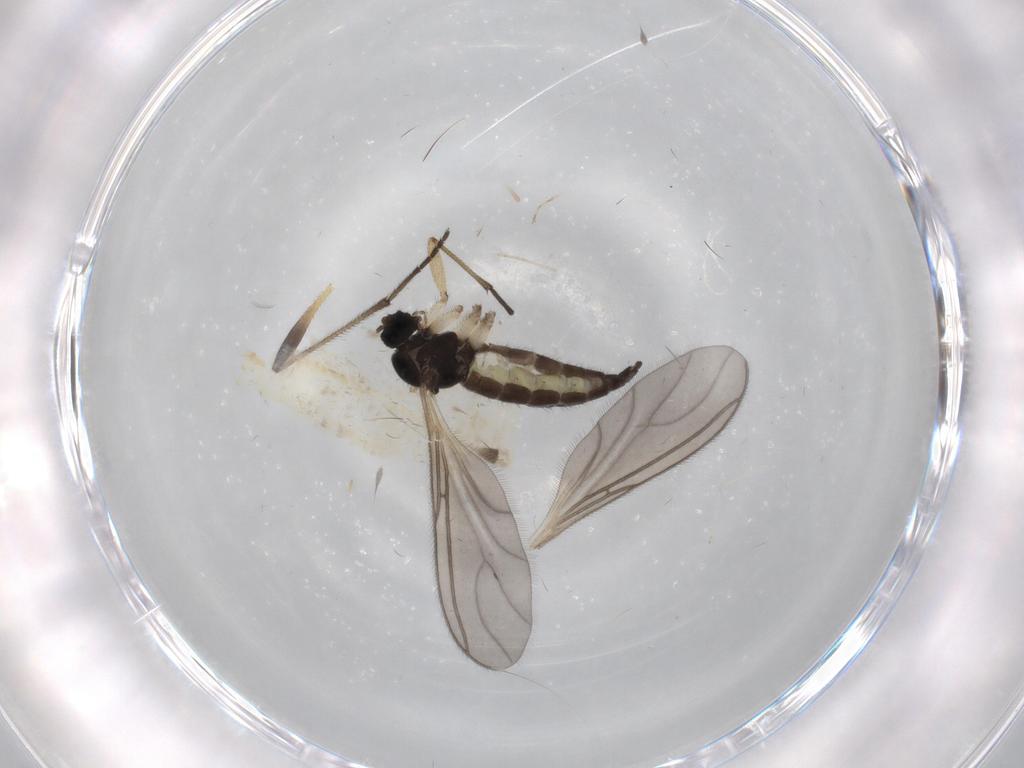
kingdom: Animalia
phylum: Arthropoda
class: Insecta
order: Diptera
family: Sciaridae
